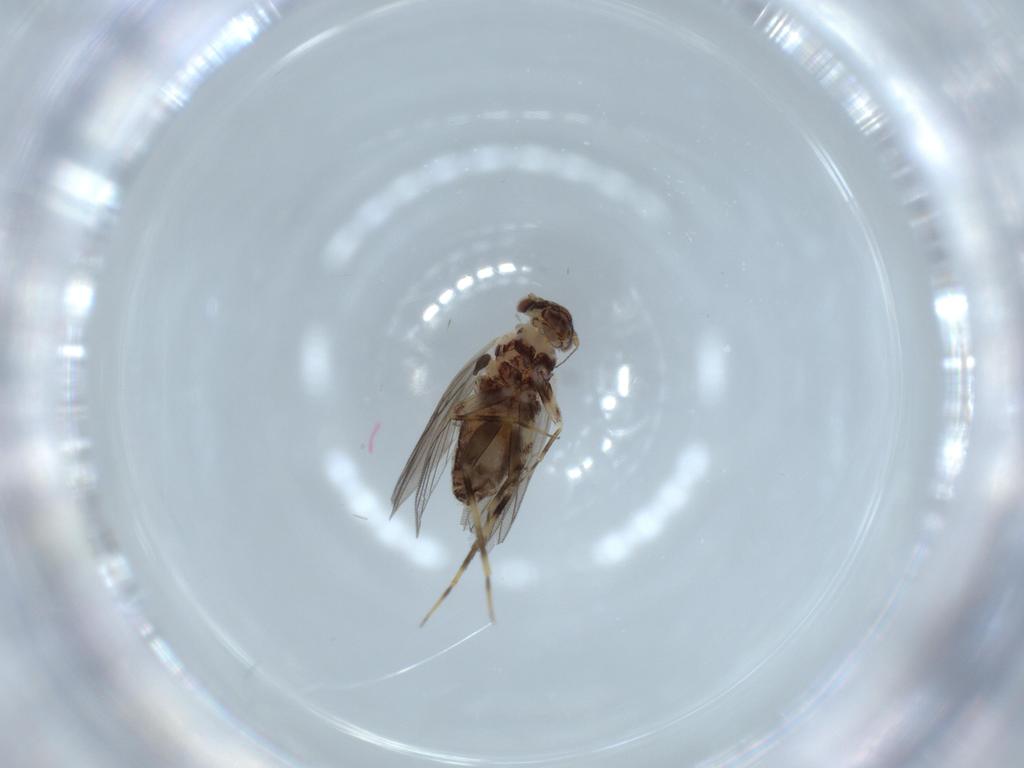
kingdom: Animalia
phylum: Arthropoda
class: Insecta
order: Psocodea
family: Lepidopsocidae
